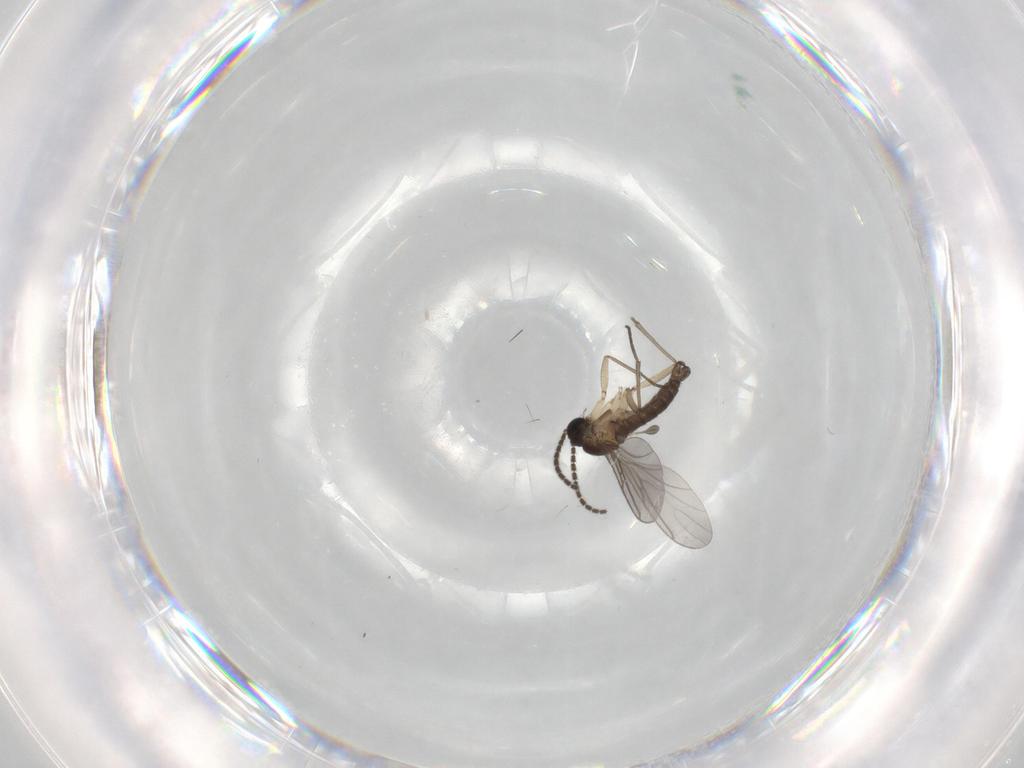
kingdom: Animalia
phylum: Arthropoda
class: Insecta
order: Diptera
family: Sciaridae
